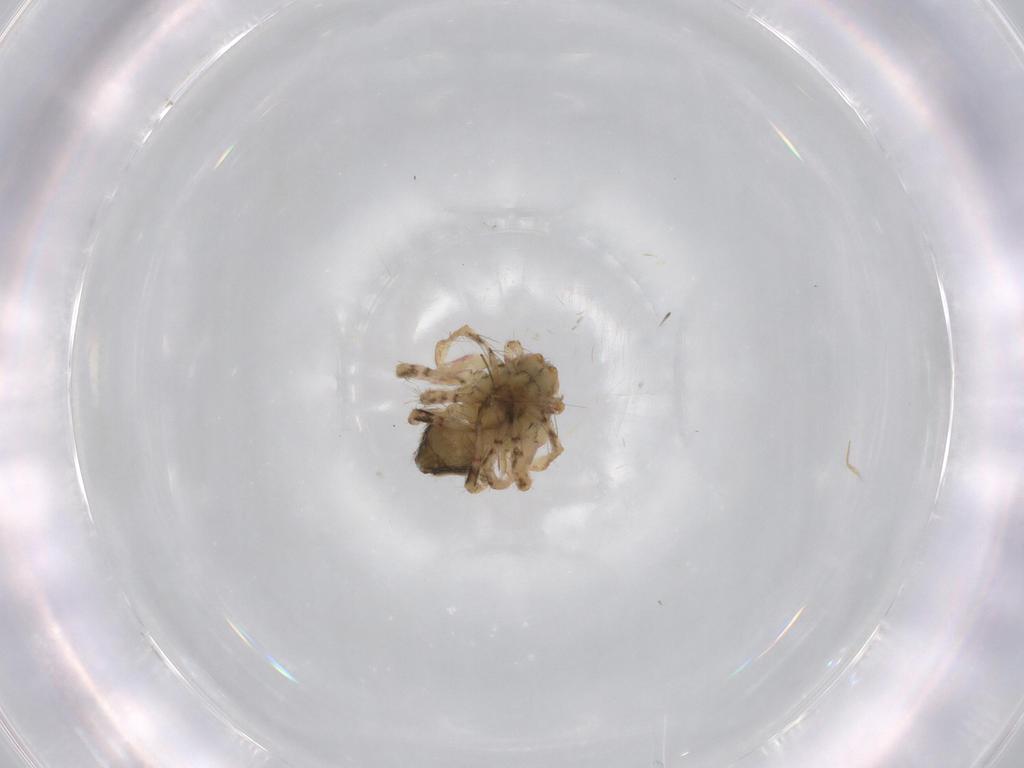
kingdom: Animalia
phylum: Arthropoda
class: Arachnida
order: Araneae
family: Oxyopidae
